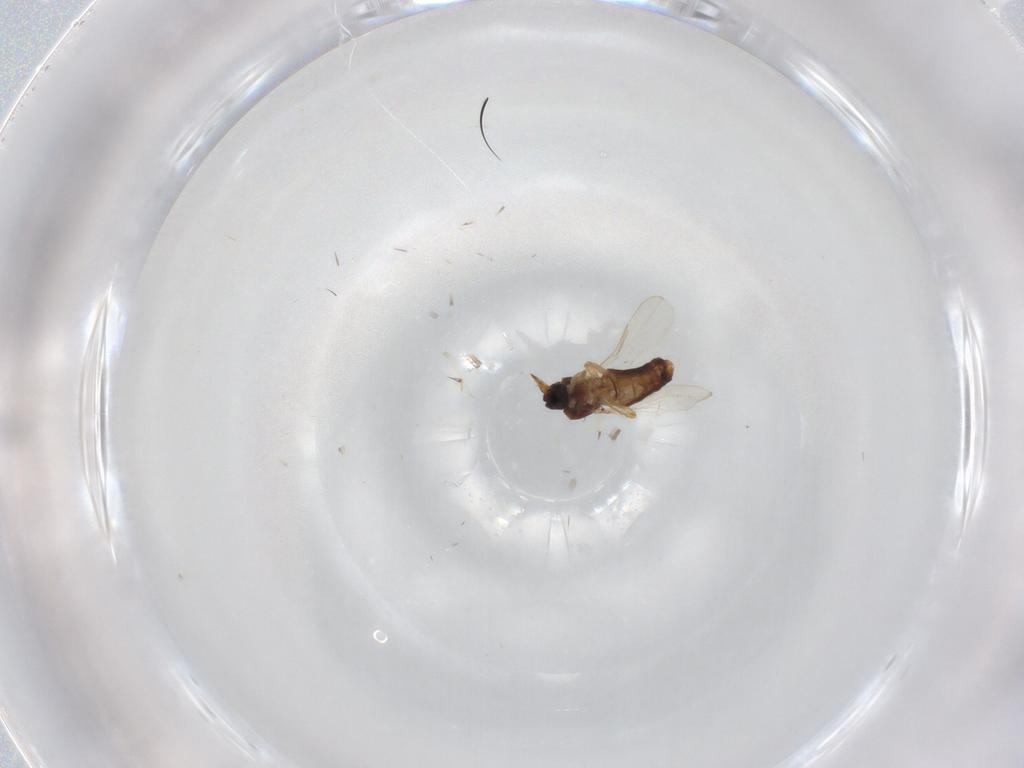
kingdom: Animalia
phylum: Arthropoda
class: Insecta
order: Diptera
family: Ceratopogonidae
